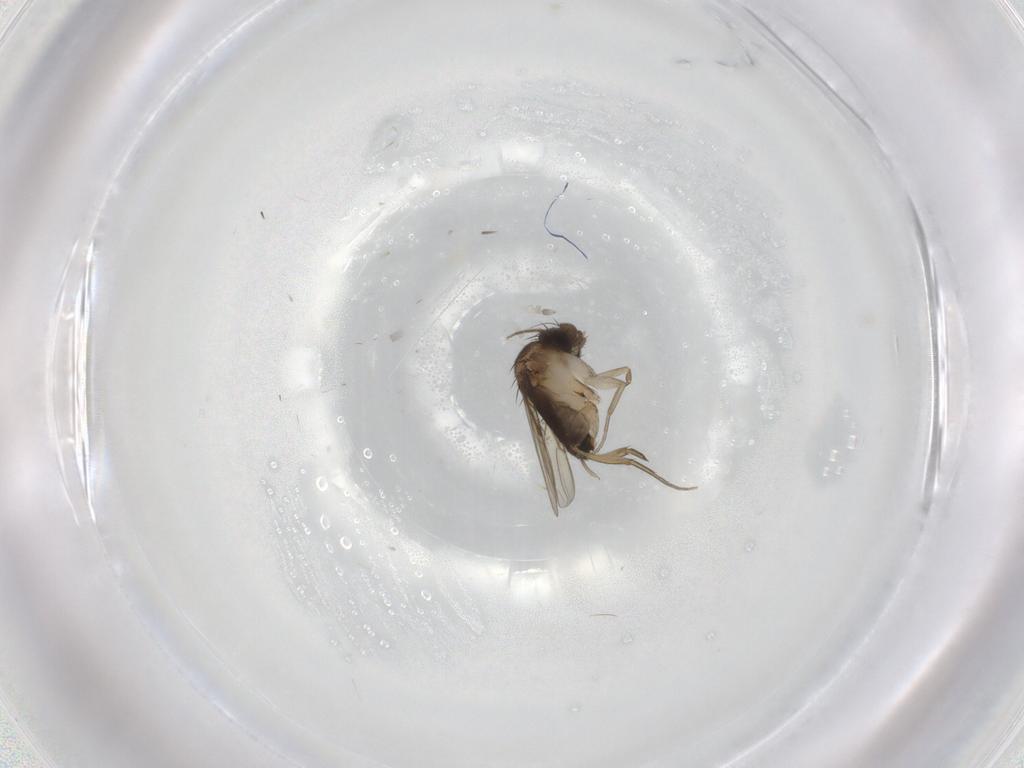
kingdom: Animalia
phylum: Arthropoda
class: Insecta
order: Diptera
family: Phoridae
